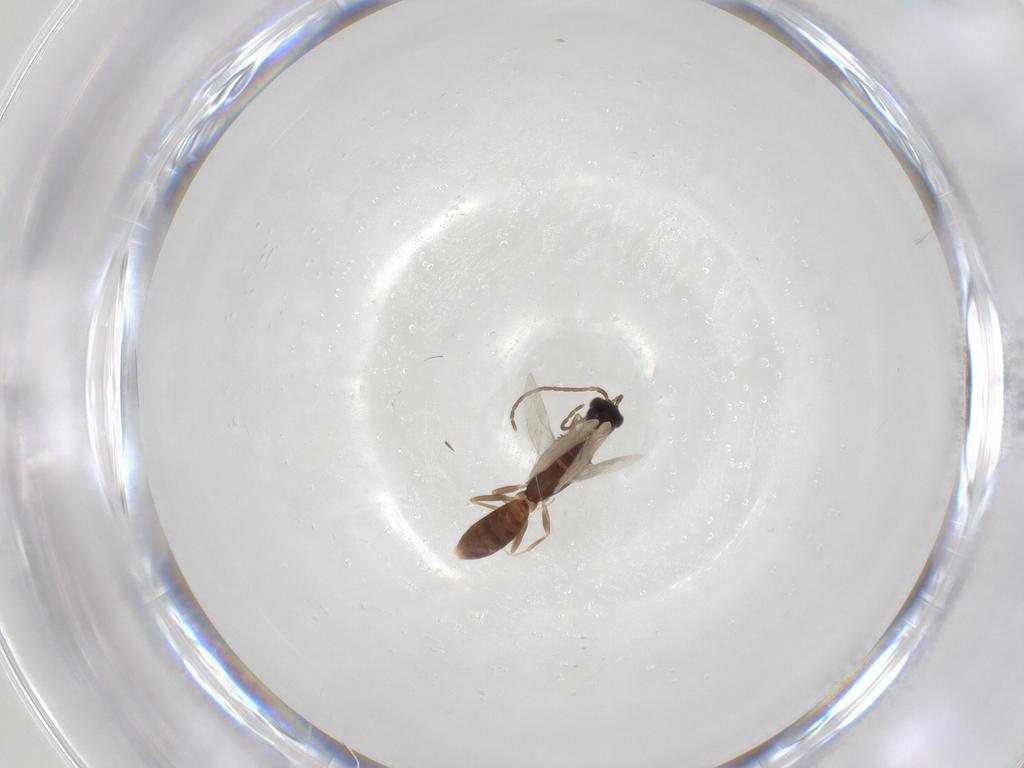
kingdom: Animalia
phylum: Arthropoda
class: Insecta
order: Hymenoptera
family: Bethylidae
